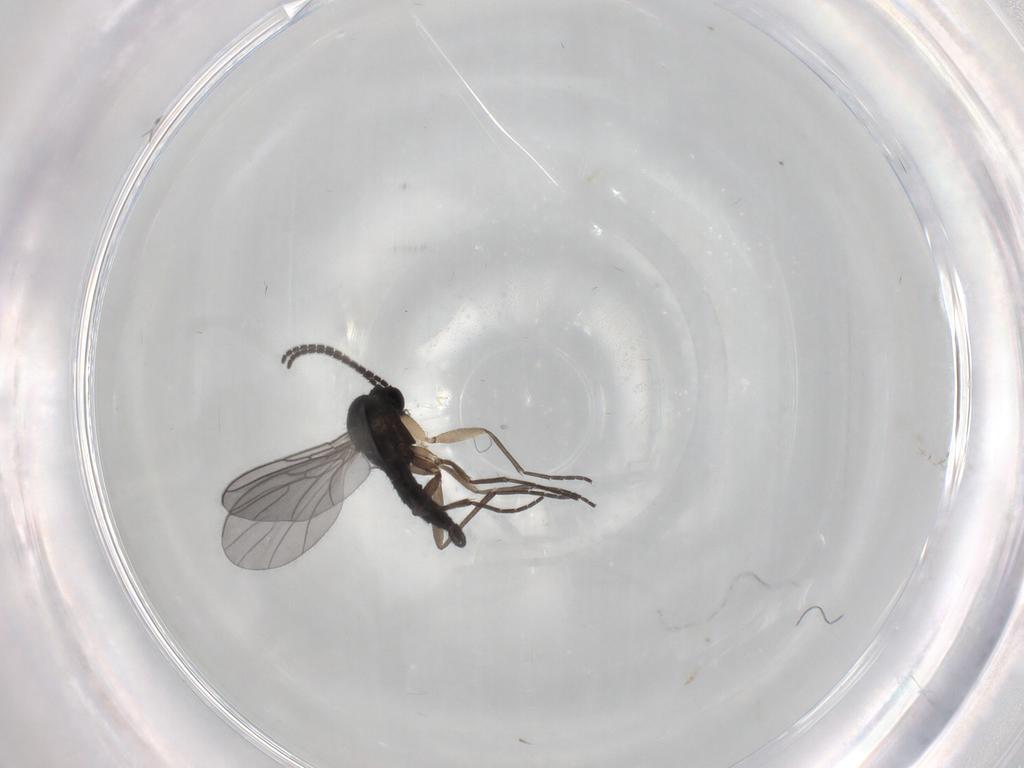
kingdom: Animalia
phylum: Arthropoda
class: Insecta
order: Diptera
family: Sciaridae
